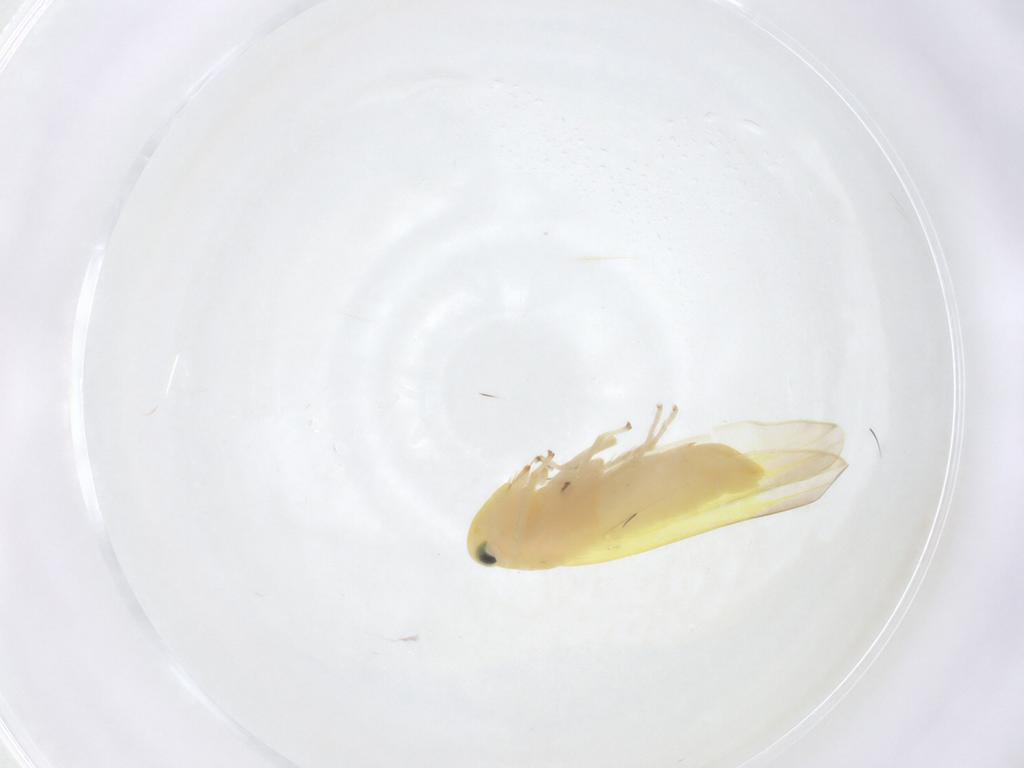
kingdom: Animalia
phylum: Arthropoda
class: Insecta
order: Hemiptera
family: Cicadellidae
